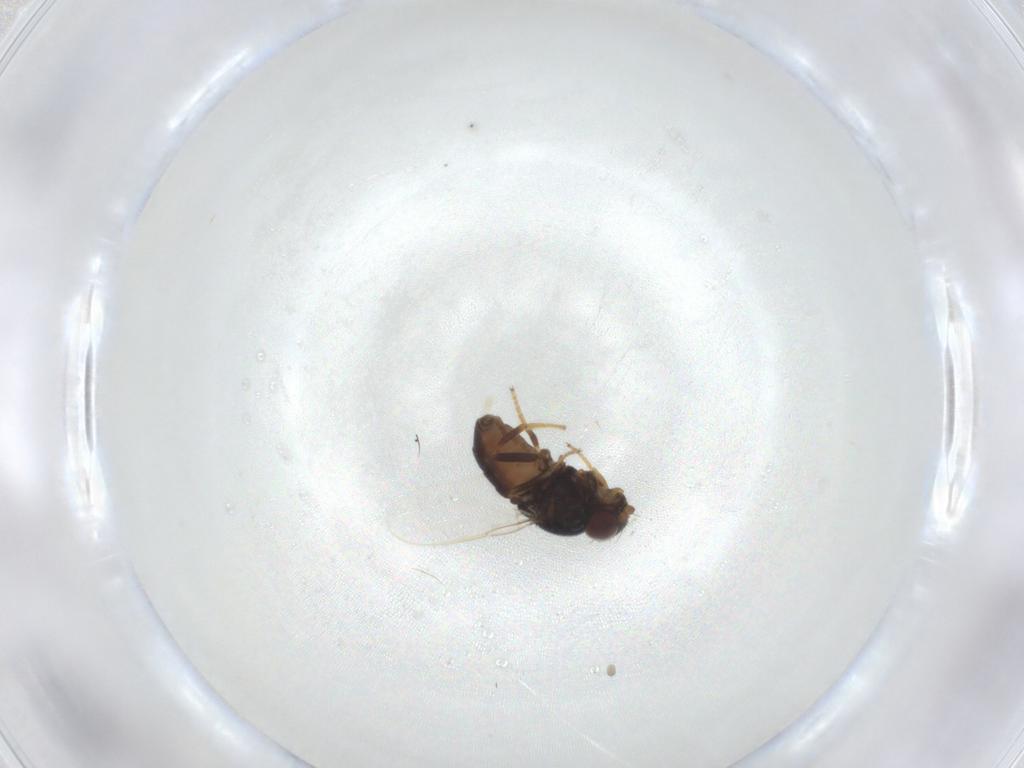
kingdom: Animalia
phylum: Arthropoda
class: Insecta
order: Diptera
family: Chloropidae
